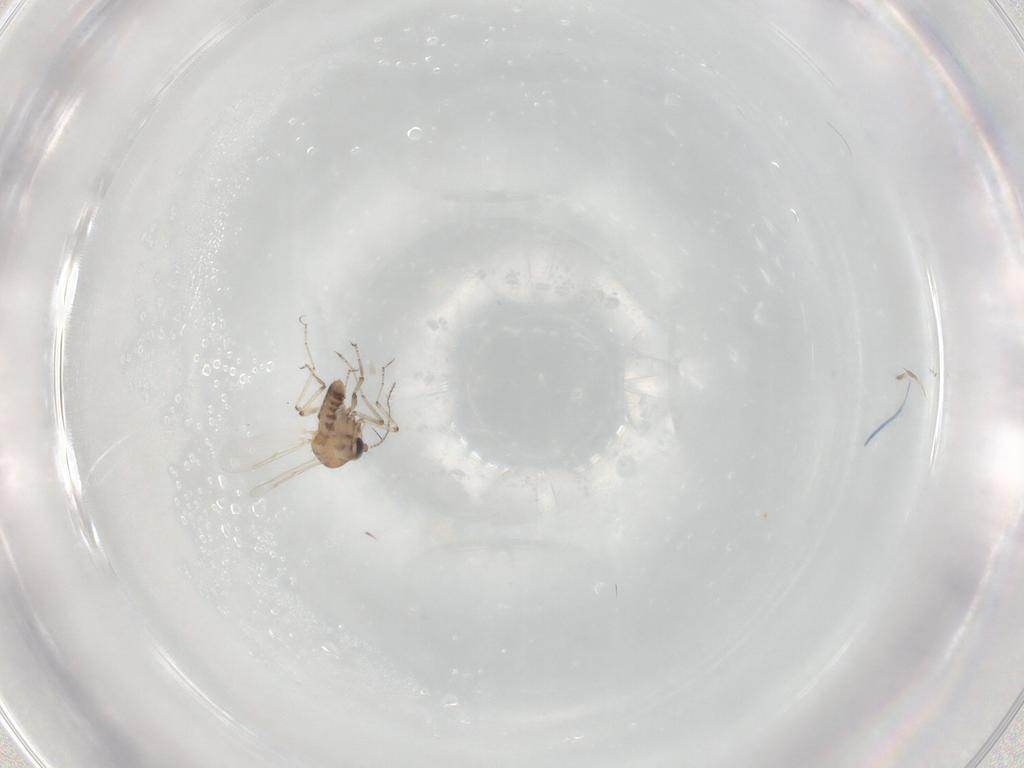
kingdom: Animalia
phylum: Arthropoda
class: Insecta
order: Diptera
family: Ceratopogonidae
